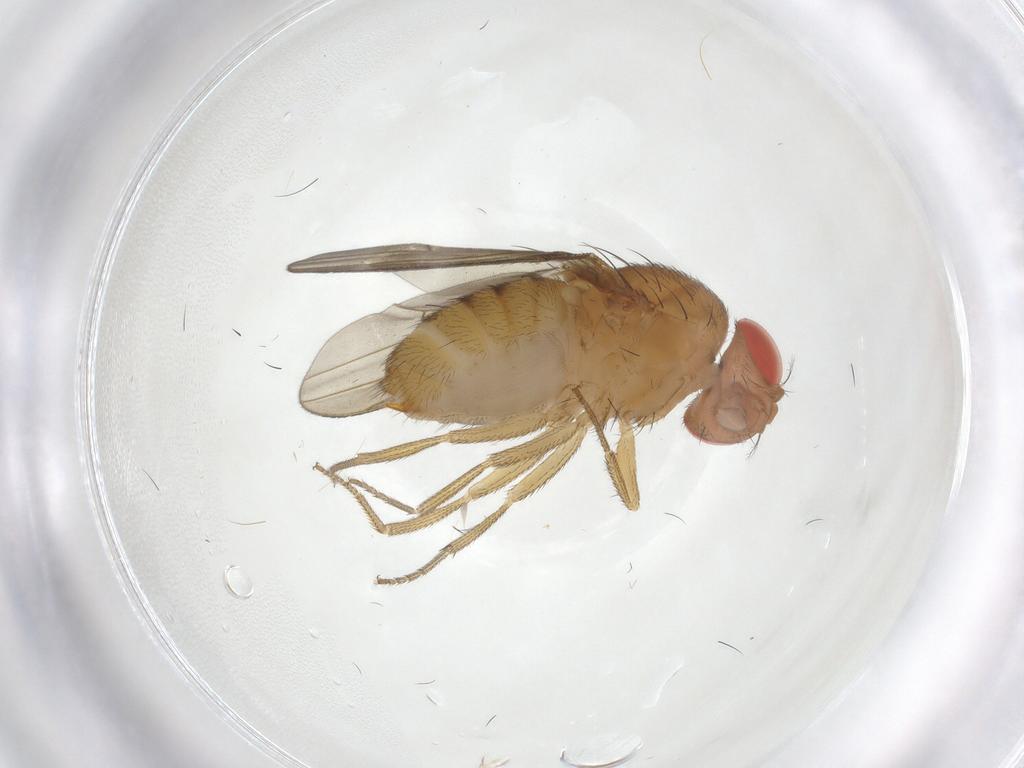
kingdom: Animalia
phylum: Arthropoda
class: Insecta
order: Diptera
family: Drosophilidae
